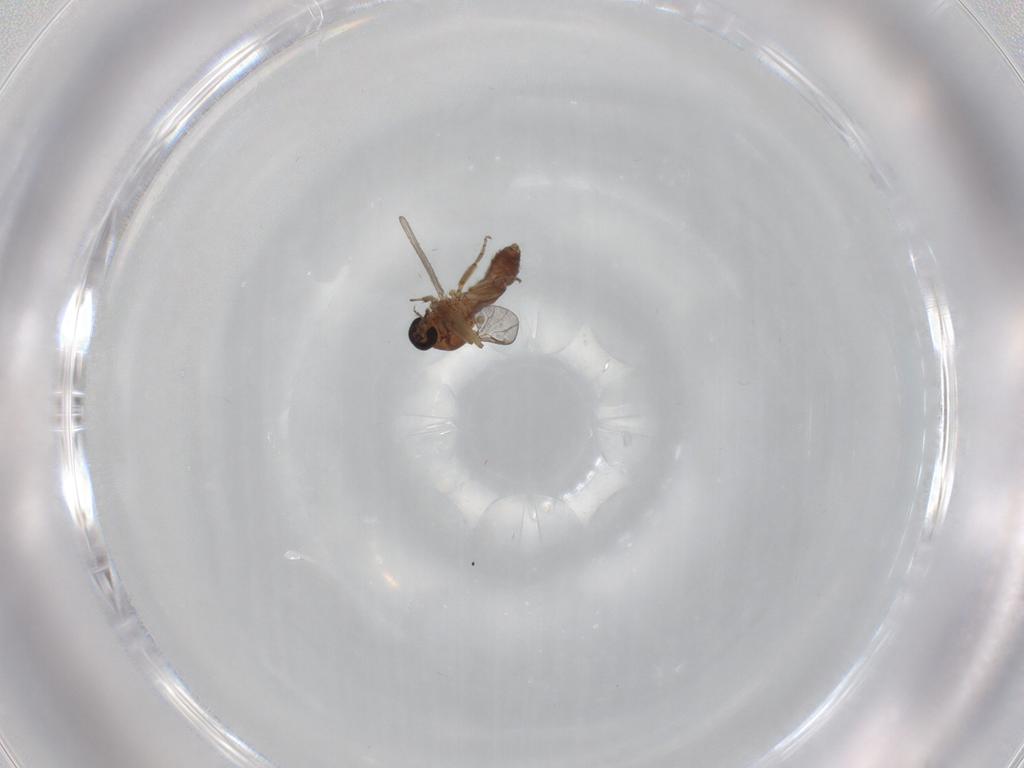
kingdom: Animalia
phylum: Arthropoda
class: Insecta
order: Diptera
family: Ceratopogonidae
